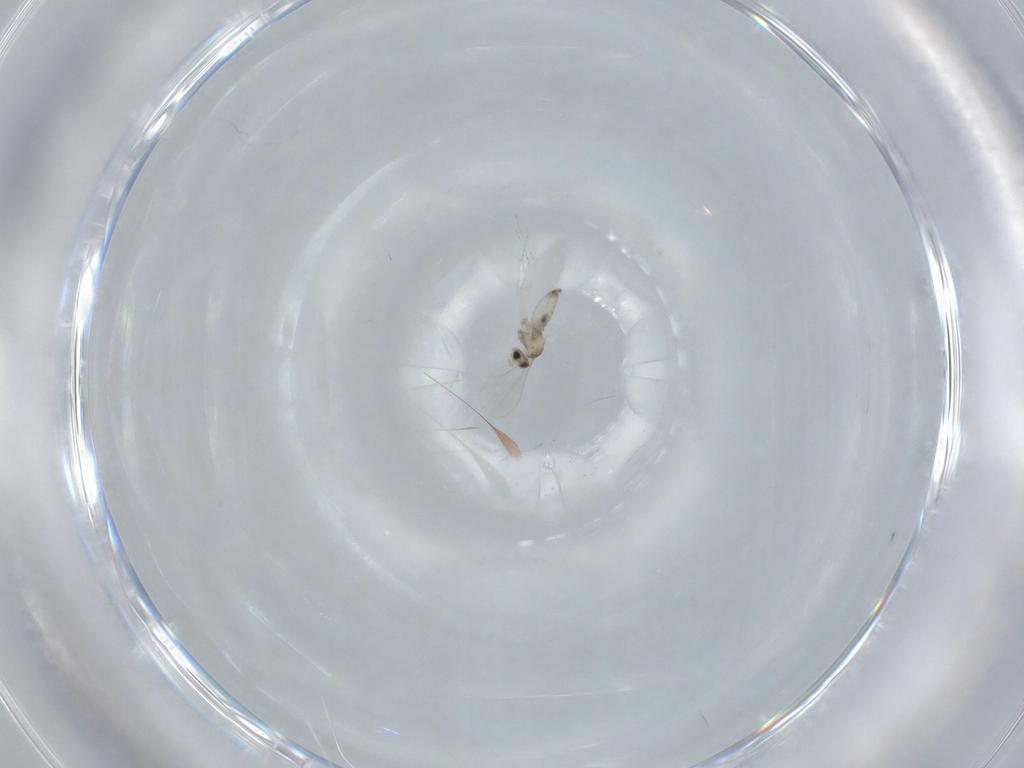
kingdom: Animalia
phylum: Arthropoda
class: Insecta
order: Diptera
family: Cecidomyiidae
